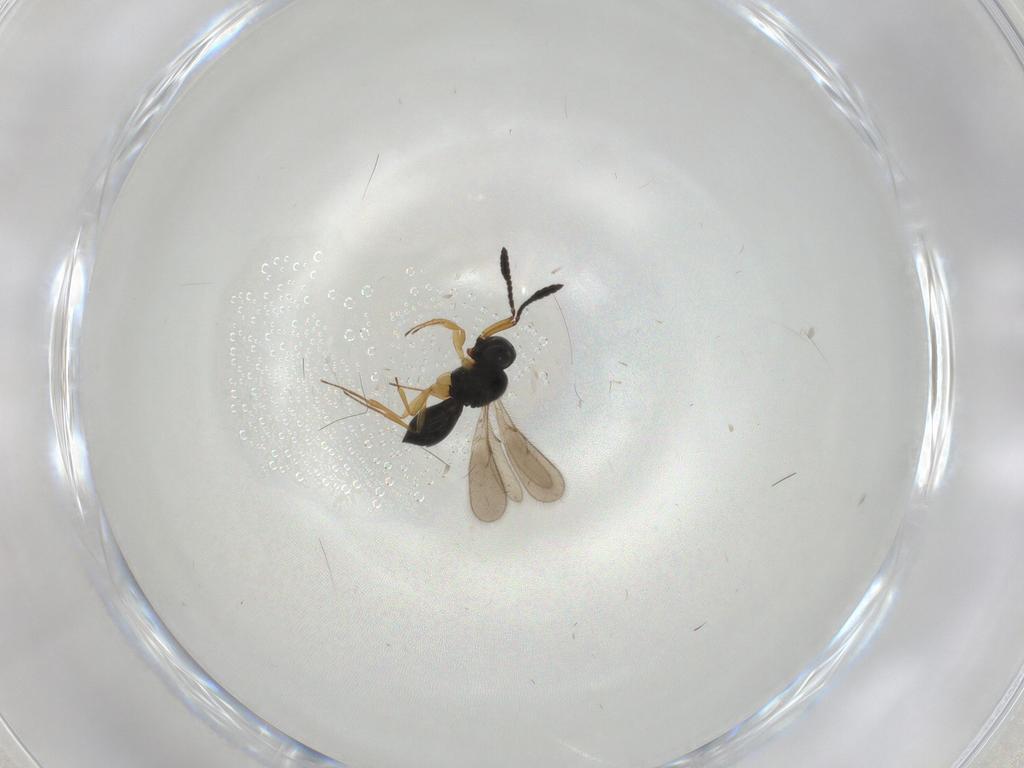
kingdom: Animalia
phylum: Arthropoda
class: Insecta
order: Hymenoptera
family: Scelionidae
